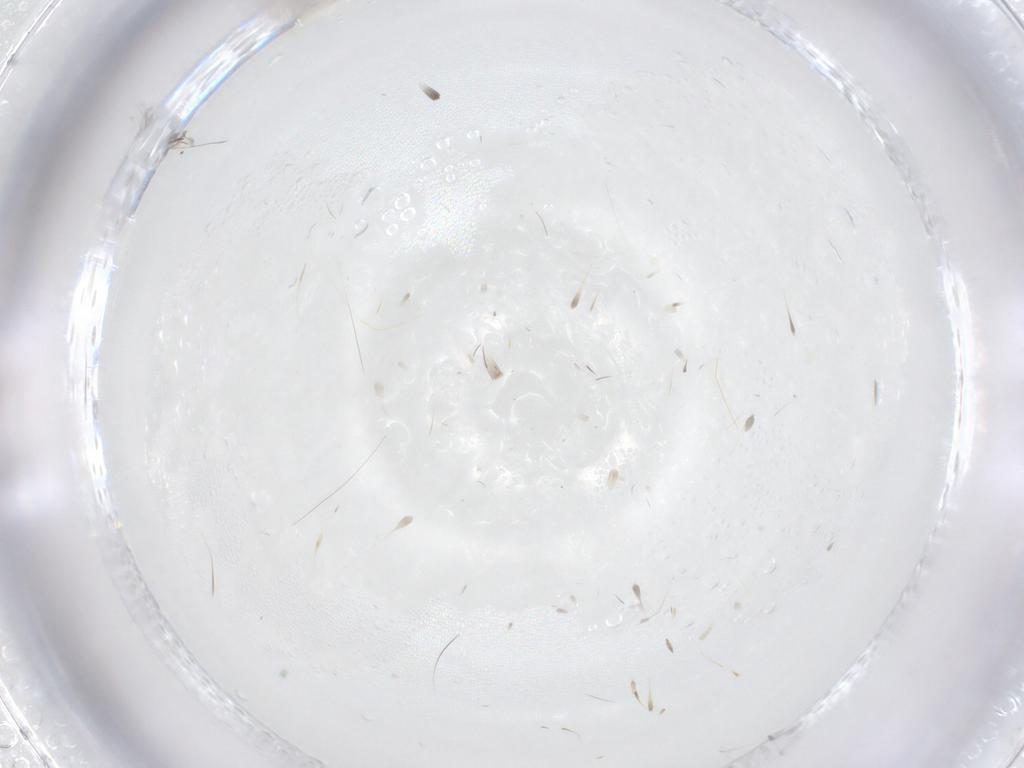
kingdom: Animalia
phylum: Arthropoda
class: Insecta
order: Diptera
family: Cecidomyiidae
